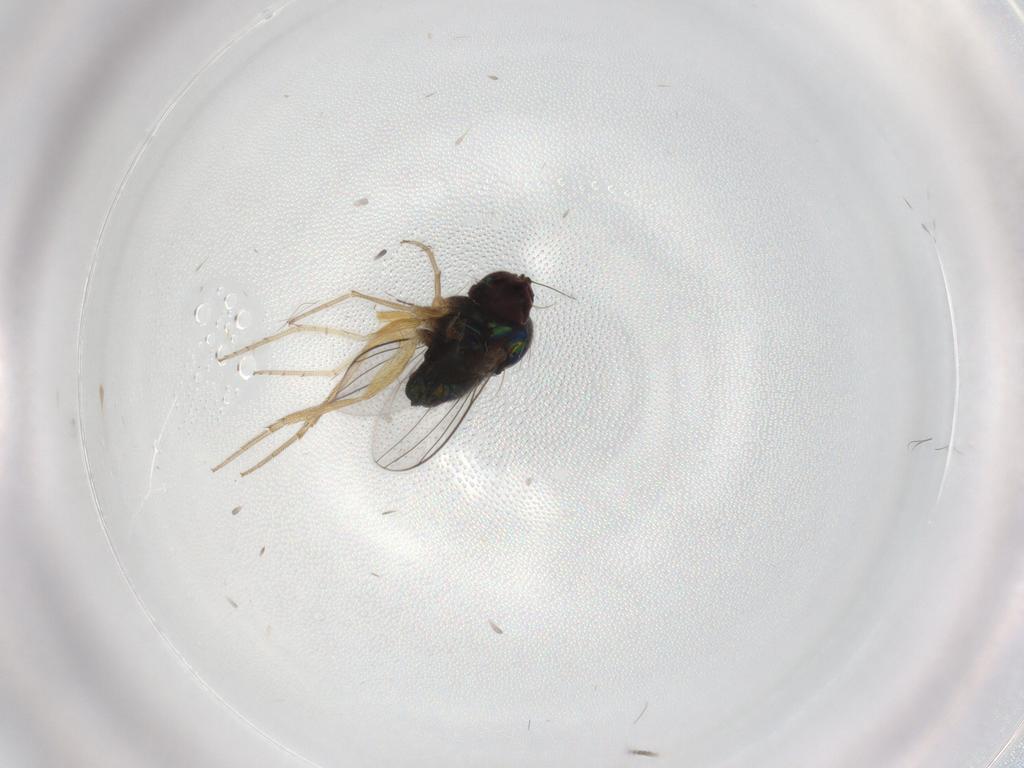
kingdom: Animalia
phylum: Arthropoda
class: Insecta
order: Diptera
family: Dolichopodidae
